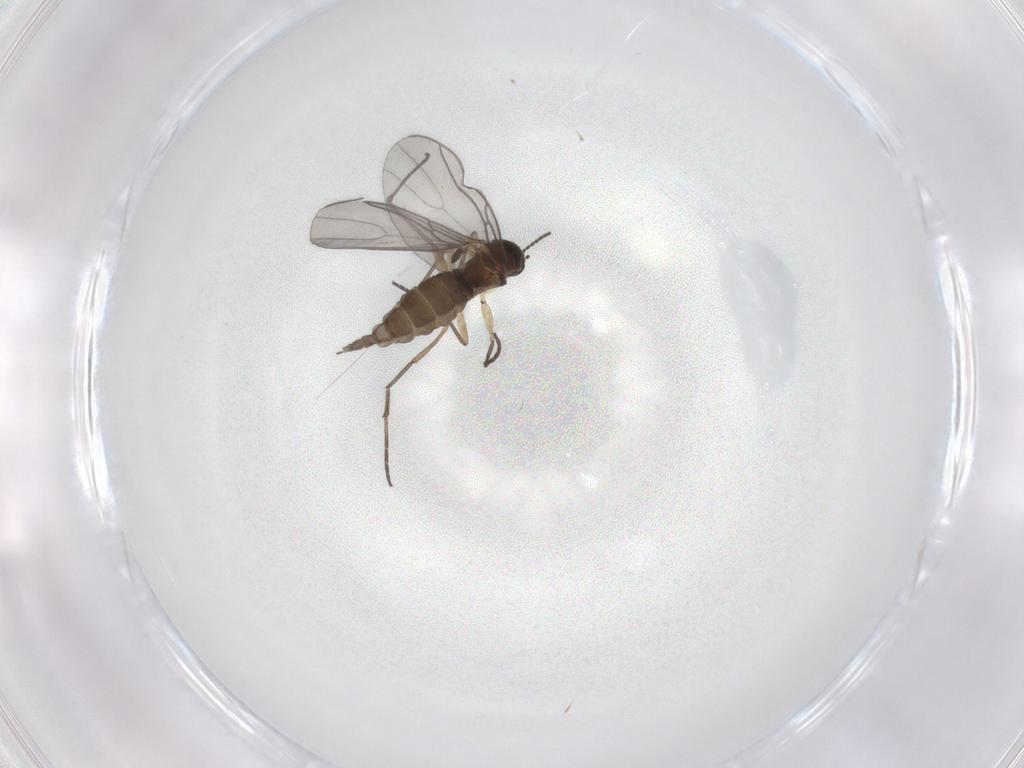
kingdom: Animalia
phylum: Arthropoda
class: Insecta
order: Diptera
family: Sciaridae
